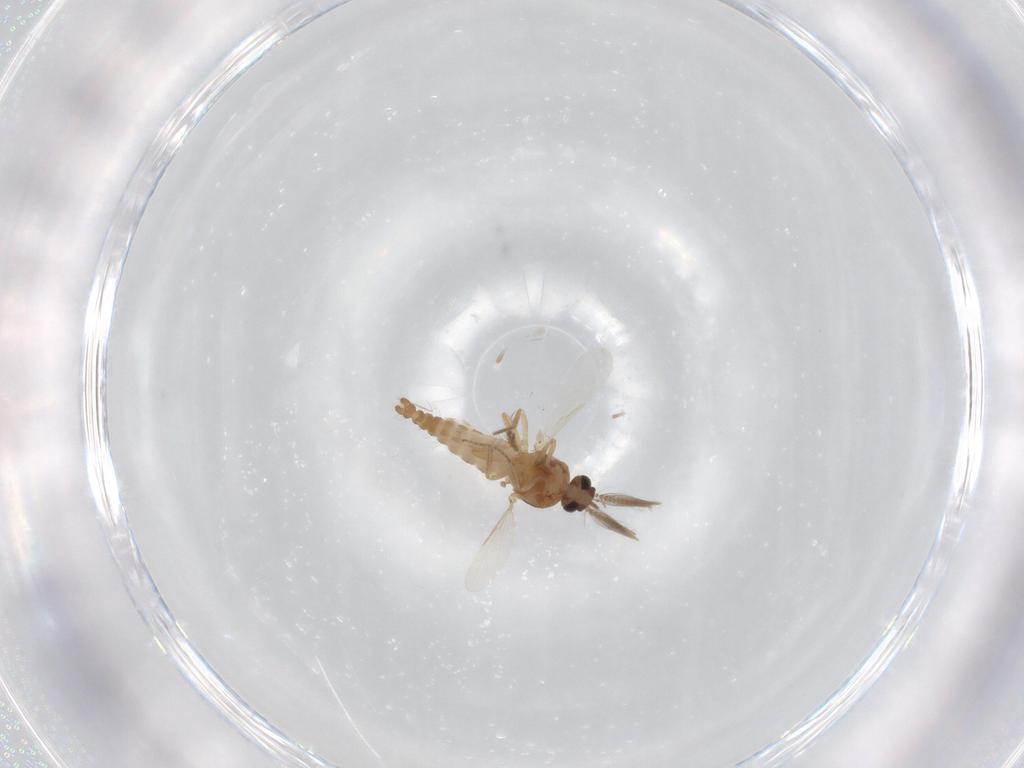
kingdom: Animalia
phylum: Arthropoda
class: Insecta
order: Diptera
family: Ceratopogonidae
